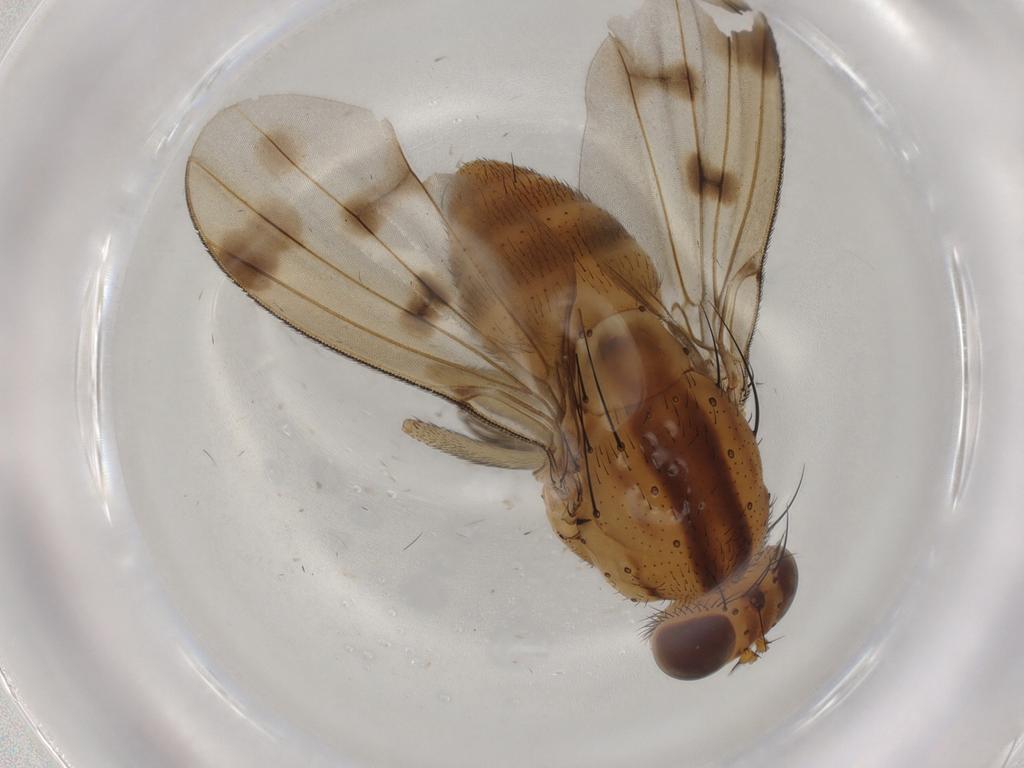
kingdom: Animalia
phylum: Arthropoda
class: Insecta
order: Diptera
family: Lauxaniidae
